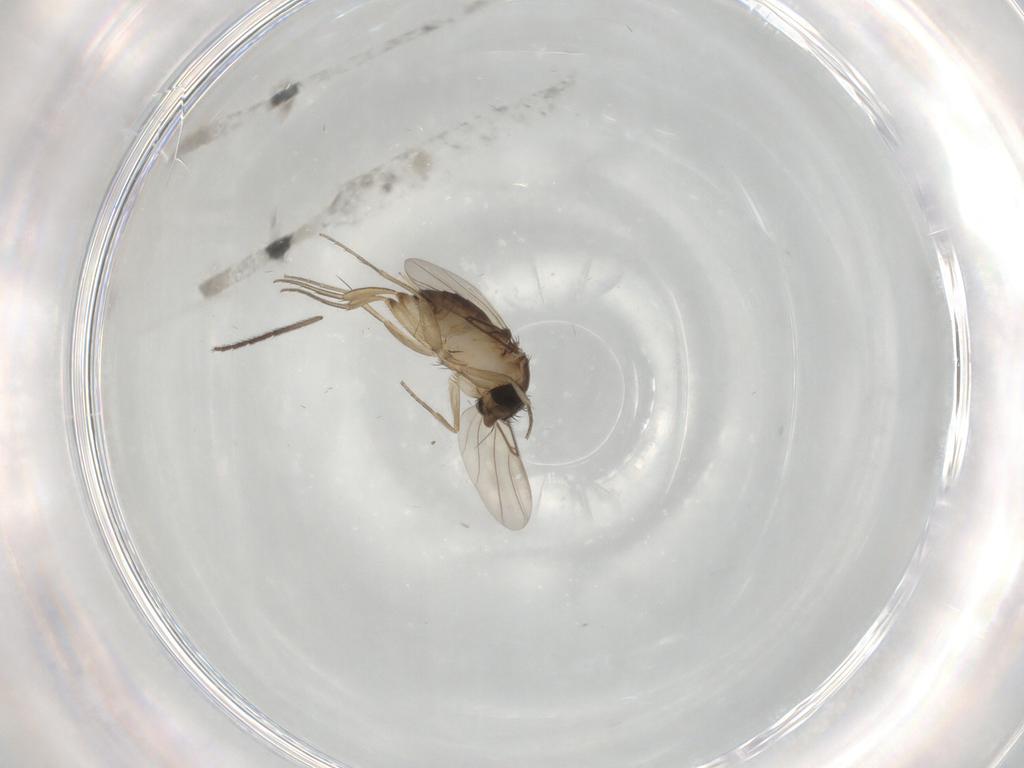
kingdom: Animalia
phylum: Arthropoda
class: Insecta
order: Diptera
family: Phoridae
